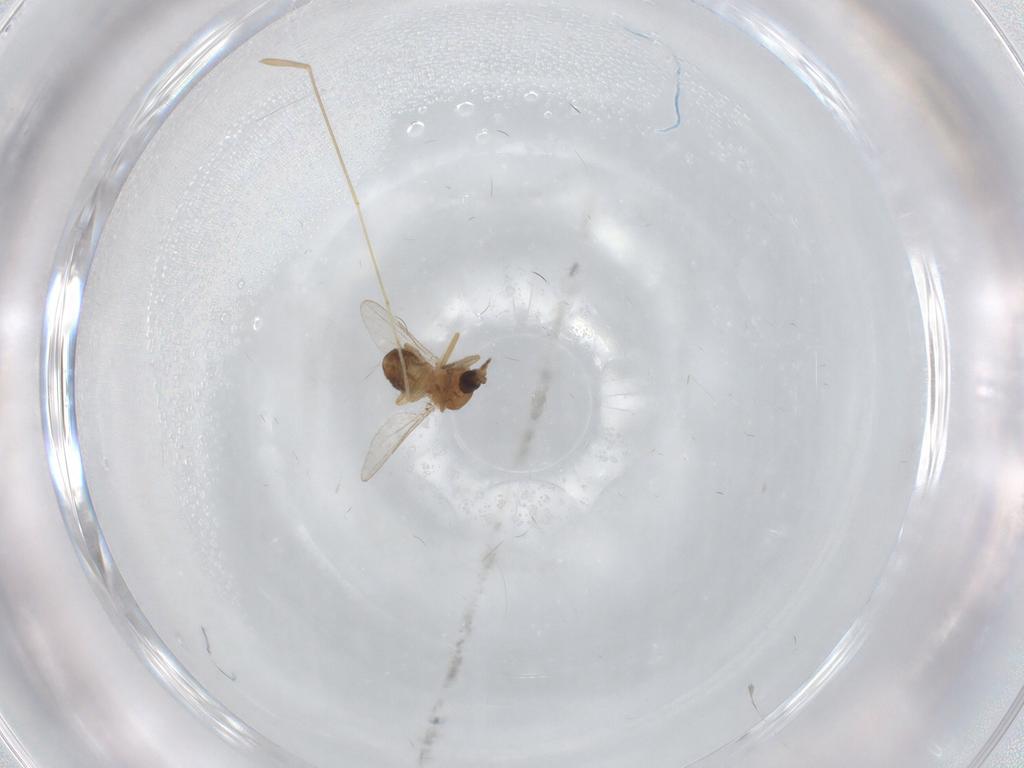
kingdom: Animalia
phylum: Arthropoda
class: Insecta
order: Diptera
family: Ceratopogonidae
